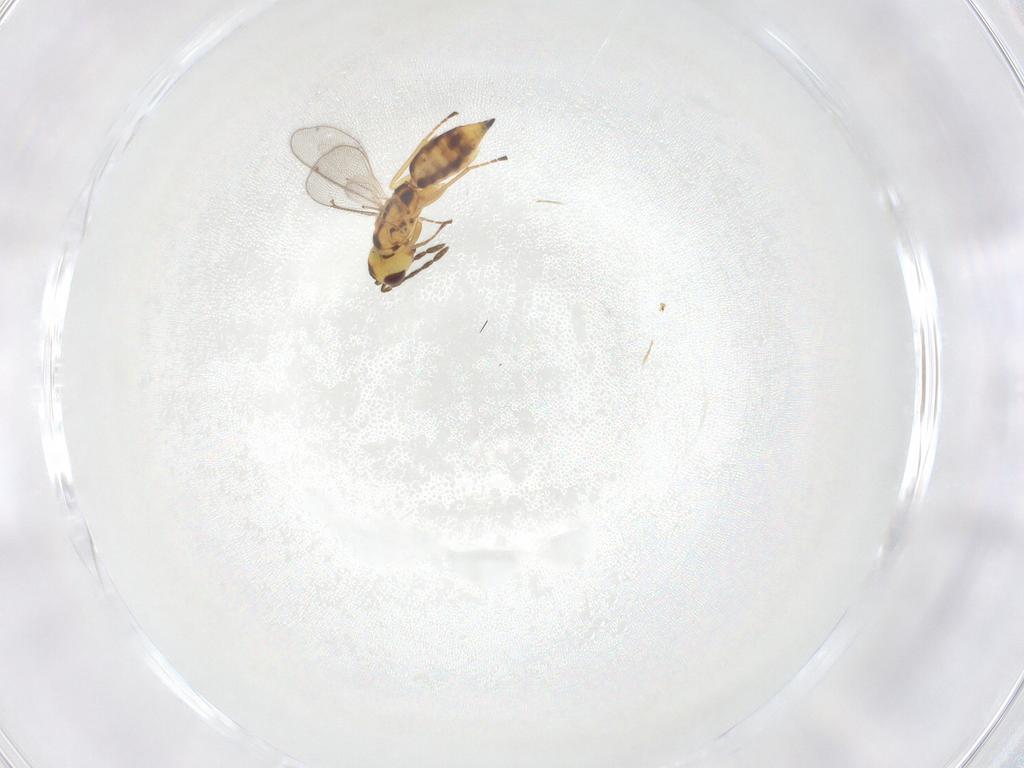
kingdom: Animalia
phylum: Arthropoda
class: Insecta
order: Hymenoptera
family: Eulophidae
